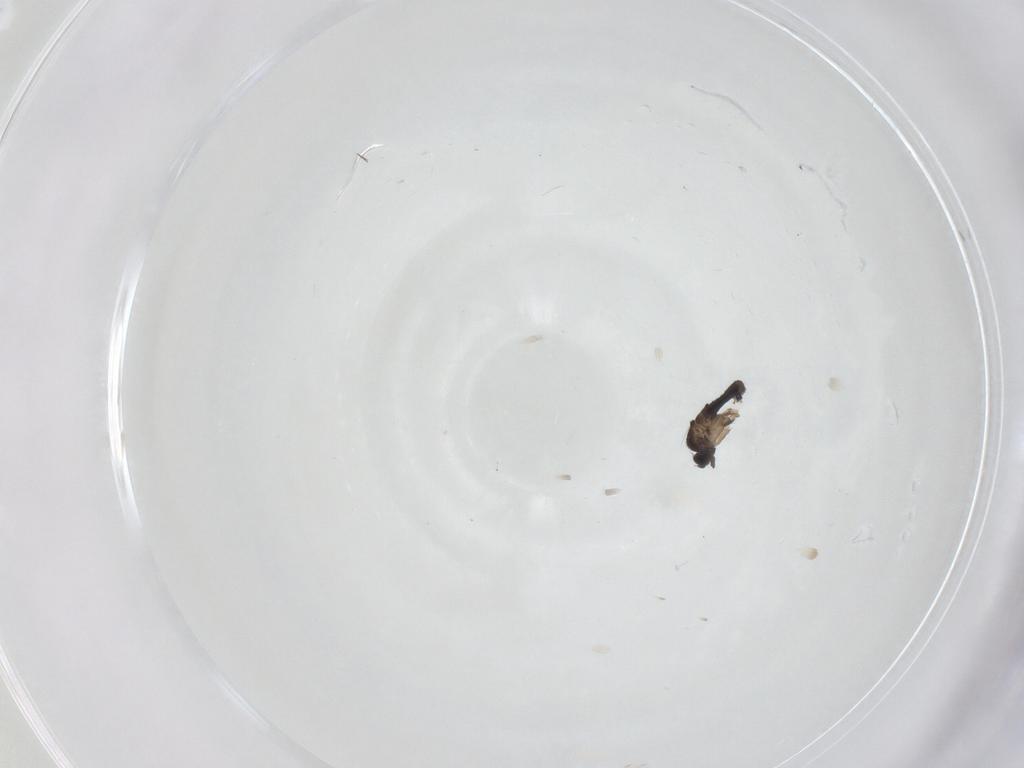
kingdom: Animalia
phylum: Arthropoda
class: Insecta
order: Diptera
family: Phoridae
